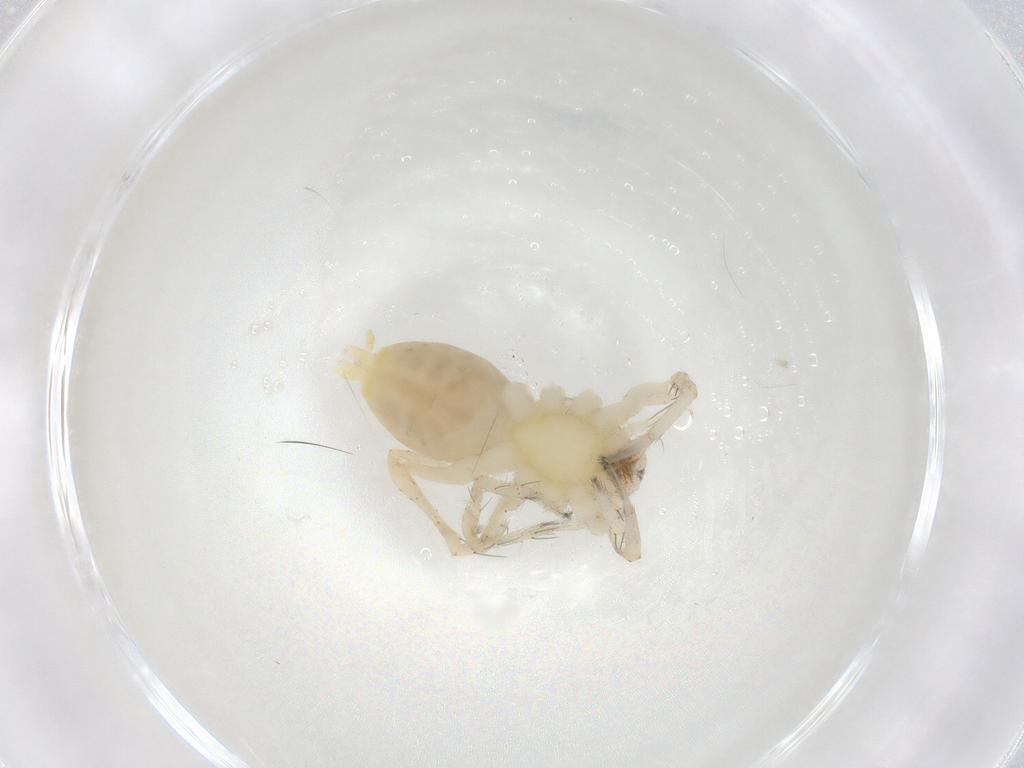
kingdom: Animalia
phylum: Arthropoda
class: Arachnida
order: Araneae
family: Anyphaenidae
